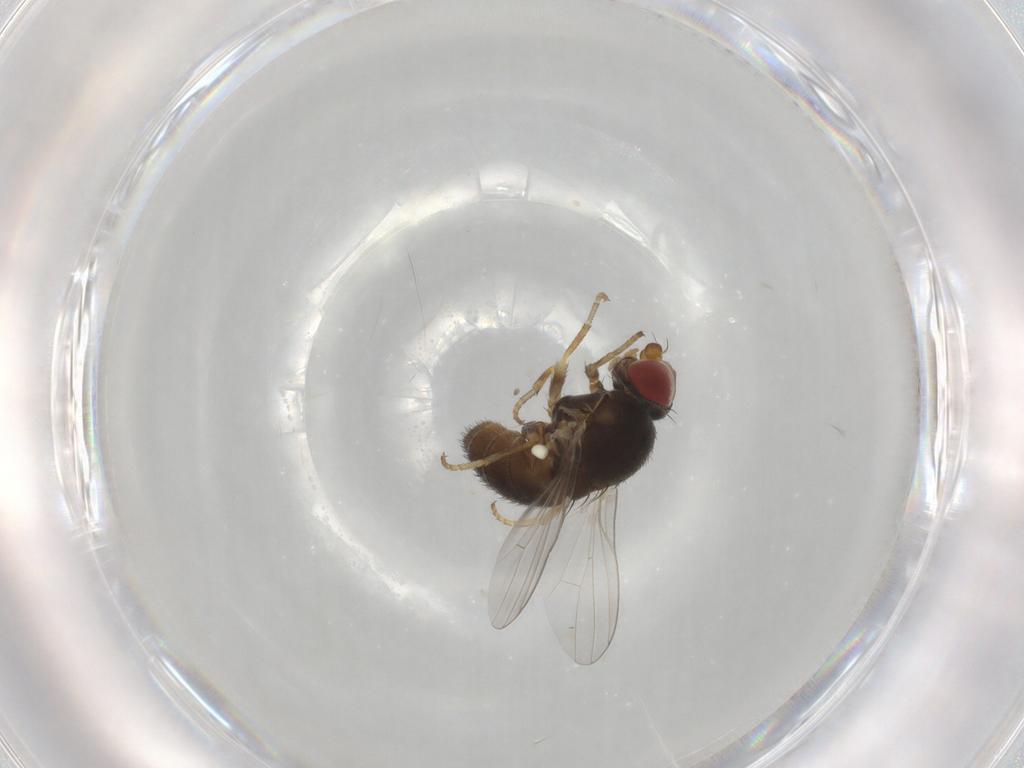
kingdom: Animalia
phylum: Arthropoda
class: Insecta
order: Diptera
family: Chamaemyiidae
